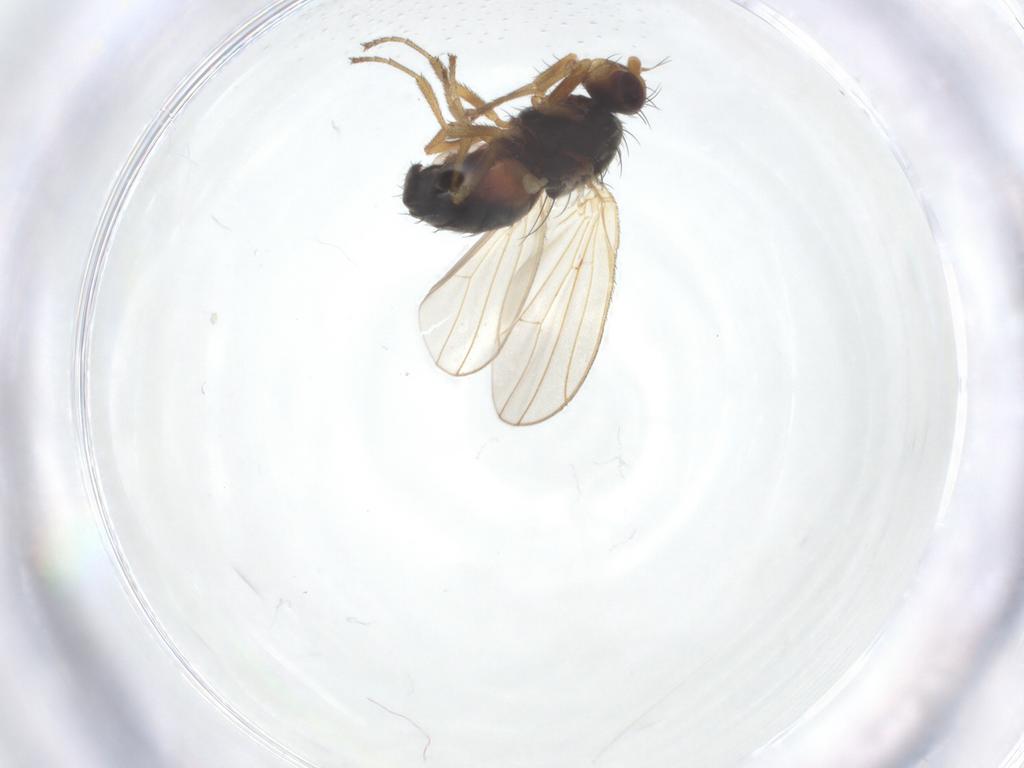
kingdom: Animalia
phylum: Arthropoda
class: Insecta
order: Diptera
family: Heleomyzidae
